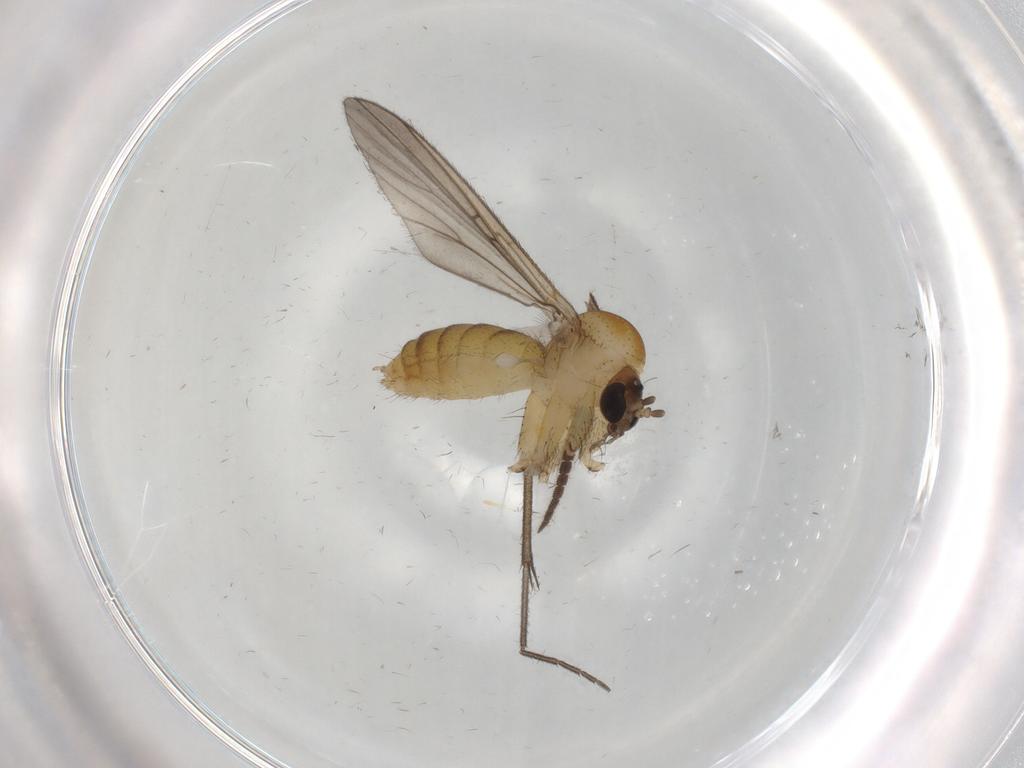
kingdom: Animalia
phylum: Arthropoda
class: Insecta
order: Diptera
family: Mycetophilidae
